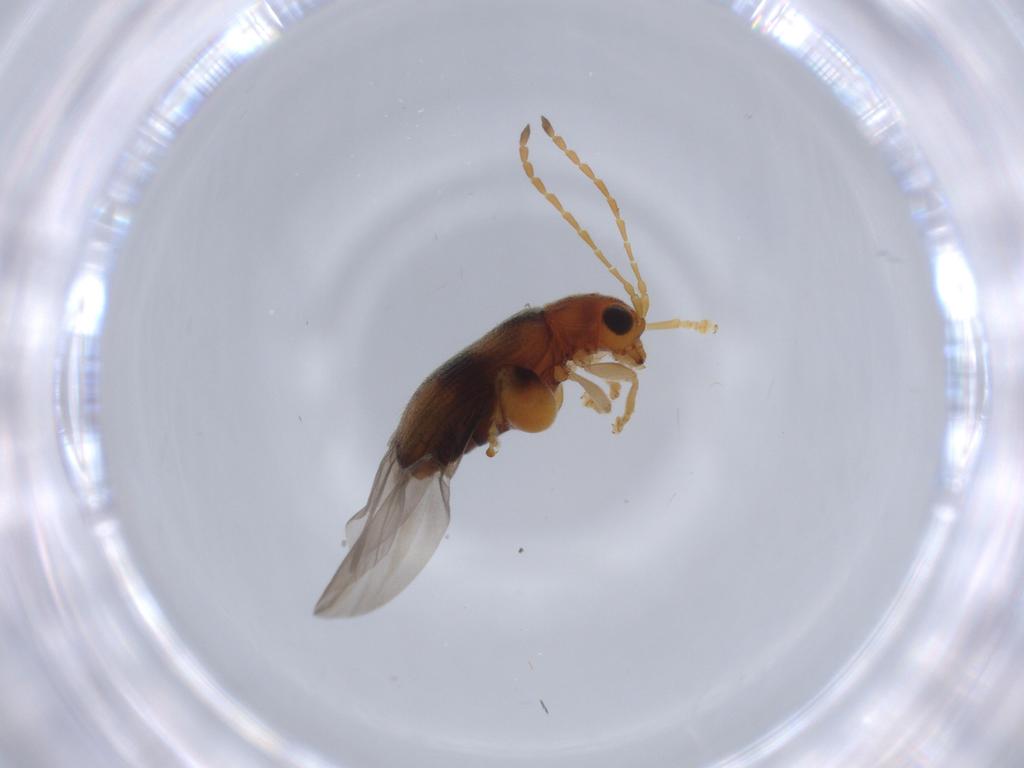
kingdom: Animalia
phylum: Arthropoda
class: Insecta
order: Coleoptera
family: Chrysomelidae
